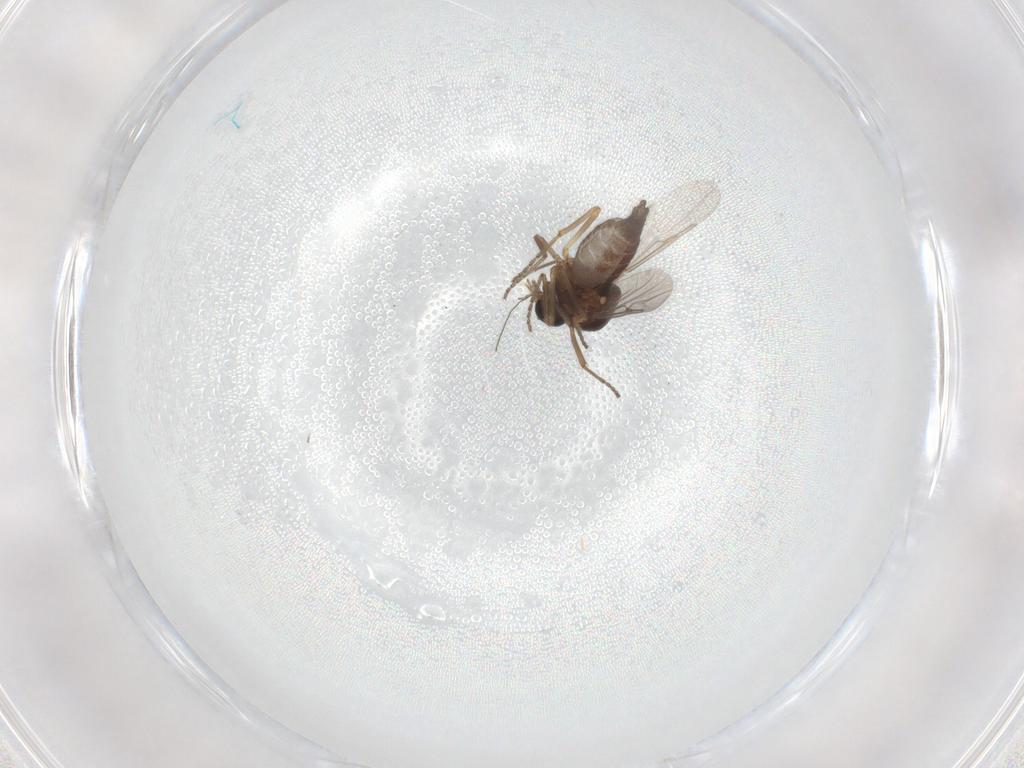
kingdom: Animalia
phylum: Arthropoda
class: Insecta
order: Diptera
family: Ceratopogonidae
